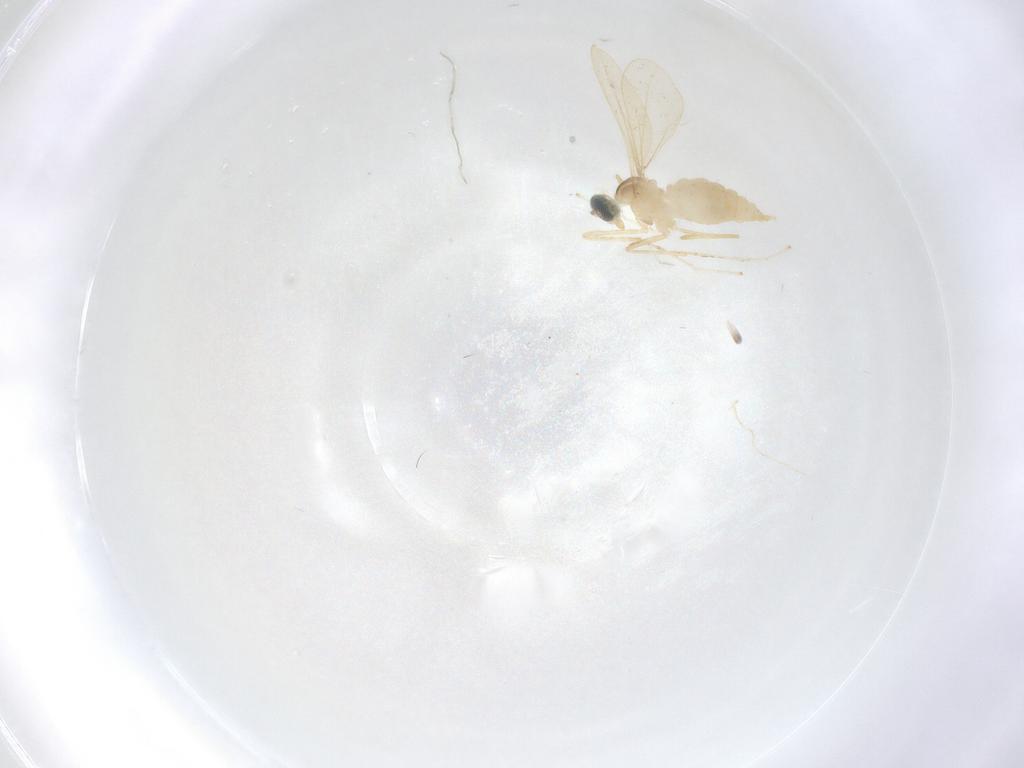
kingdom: Animalia
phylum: Arthropoda
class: Insecta
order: Diptera
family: Cecidomyiidae
